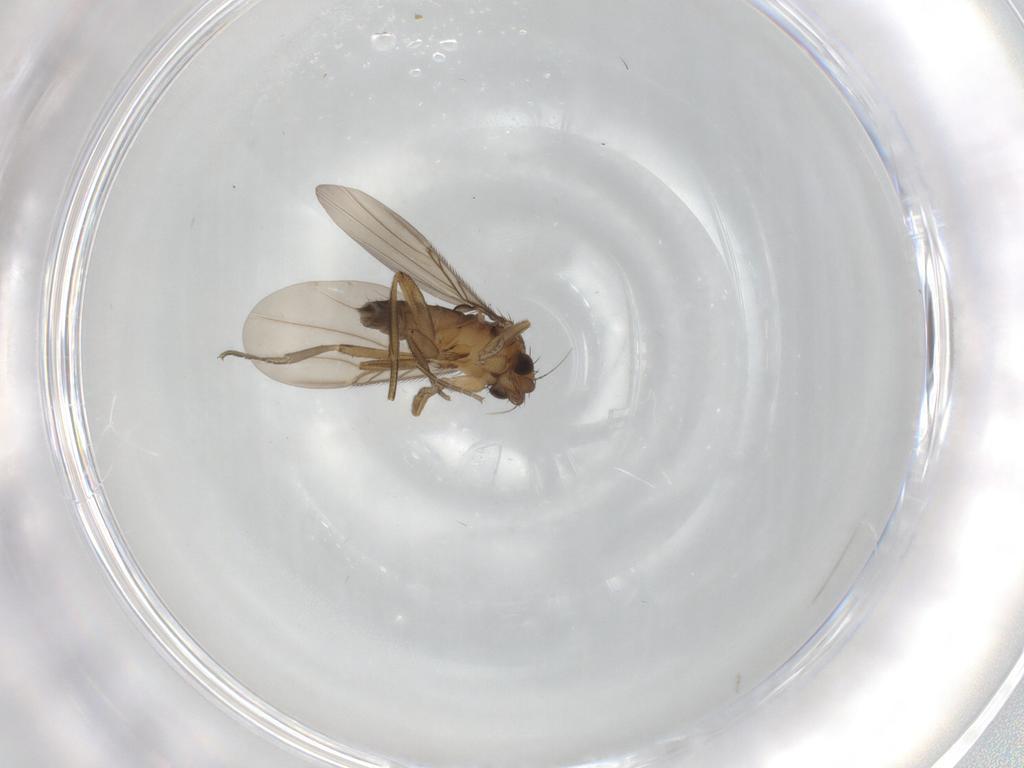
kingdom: Animalia
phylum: Arthropoda
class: Insecta
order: Diptera
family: Phoridae
